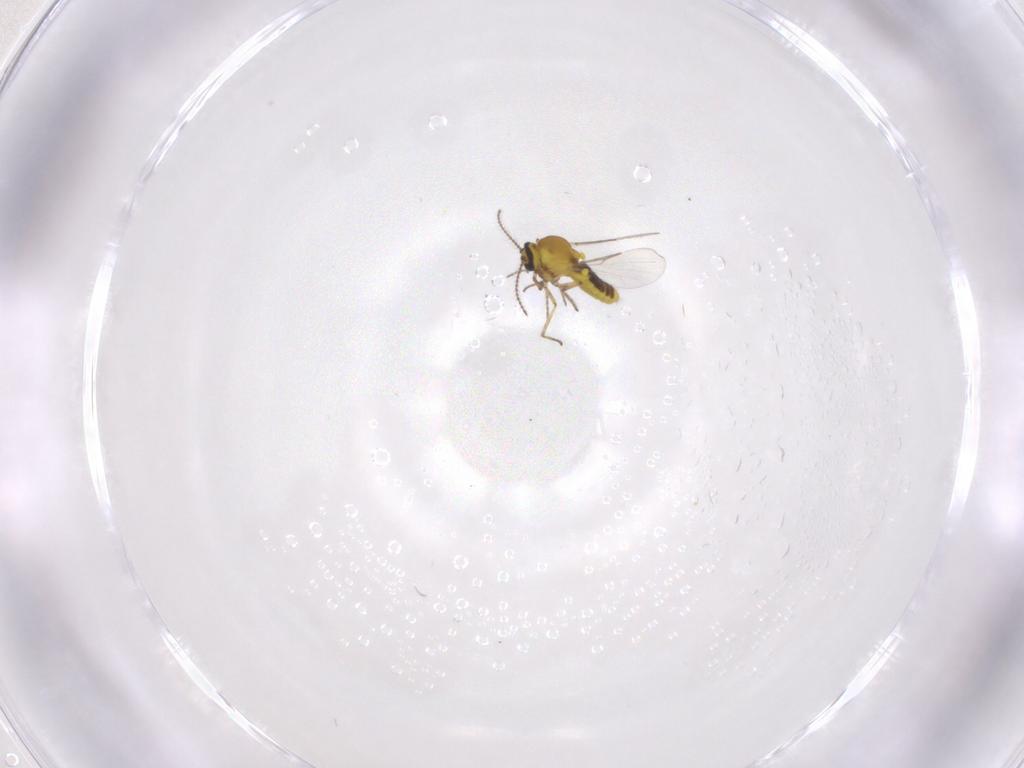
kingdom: Animalia
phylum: Arthropoda
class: Insecta
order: Diptera
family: Ceratopogonidae
